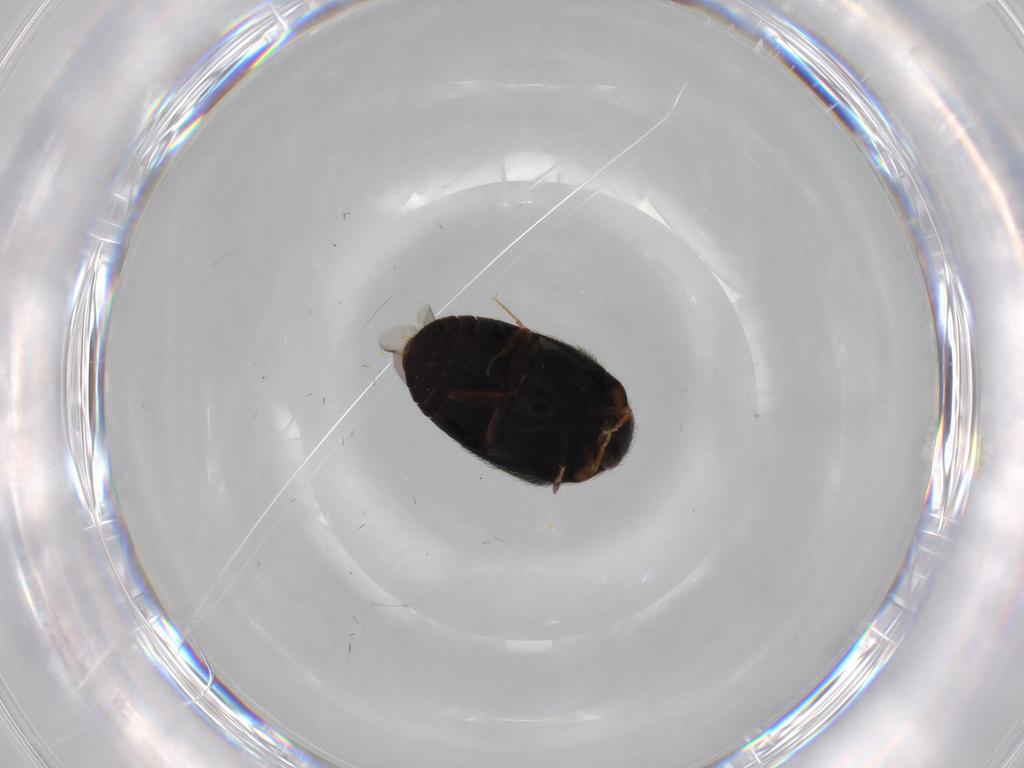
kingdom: Animalia
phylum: Arthropoda
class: Insecta
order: Coleoptera
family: Dermestidae
